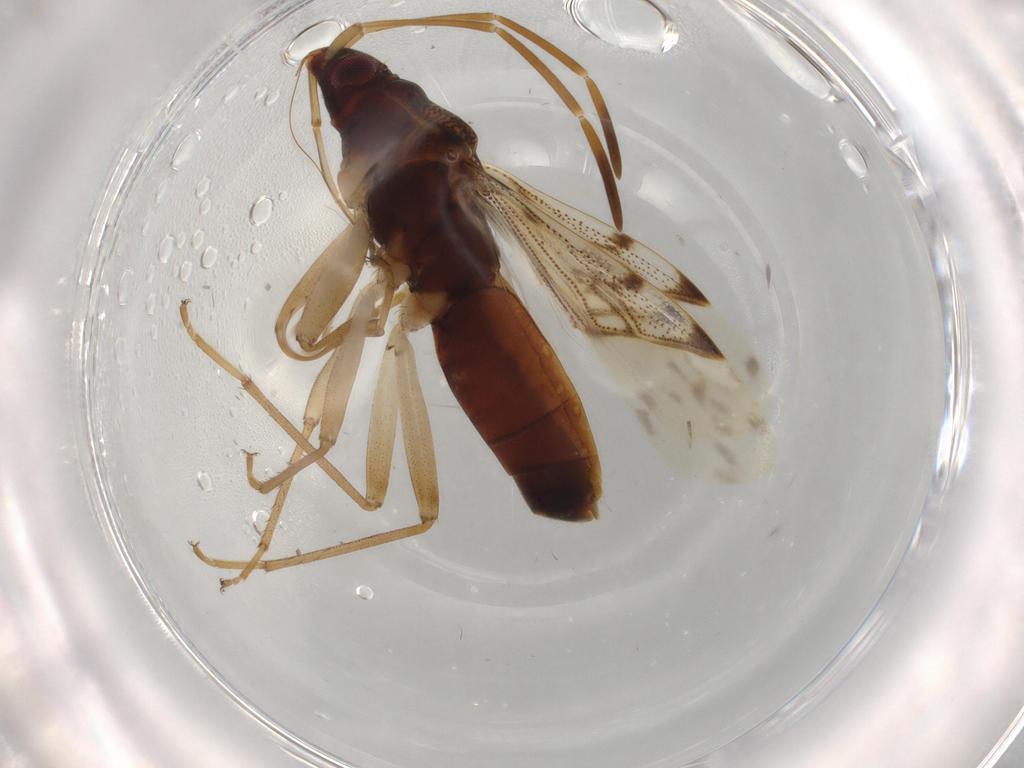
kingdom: Animalia
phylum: Arthropoda
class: Insecta
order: Hemiptera
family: Rhyparochromidae
